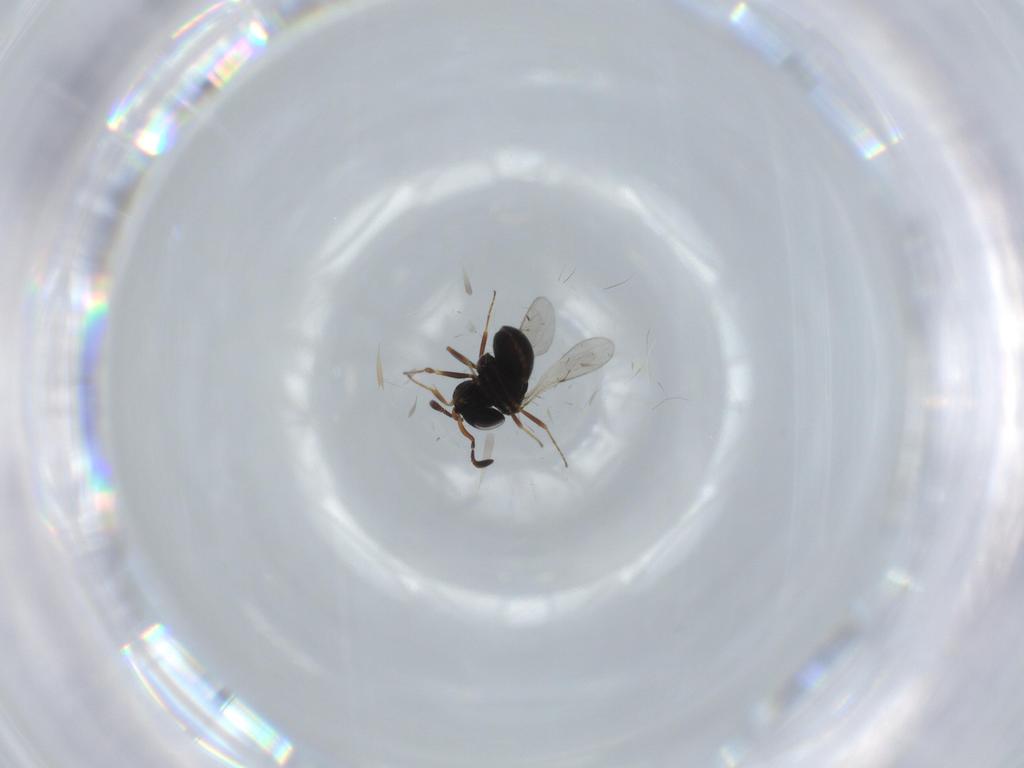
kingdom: Animalia
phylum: Arthropoda
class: Insecta
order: Hymenoptera
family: Scelionidae
